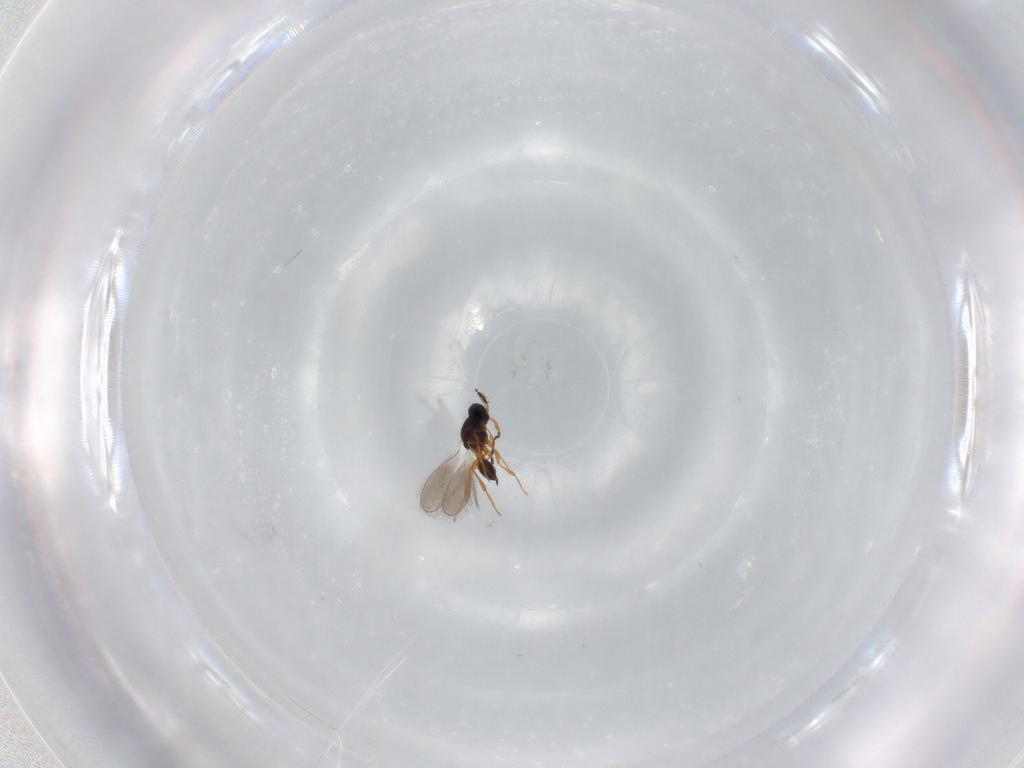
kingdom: Animalia
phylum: Arthropoda
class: Insecta
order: Hymenoptera
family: Platygastridae
